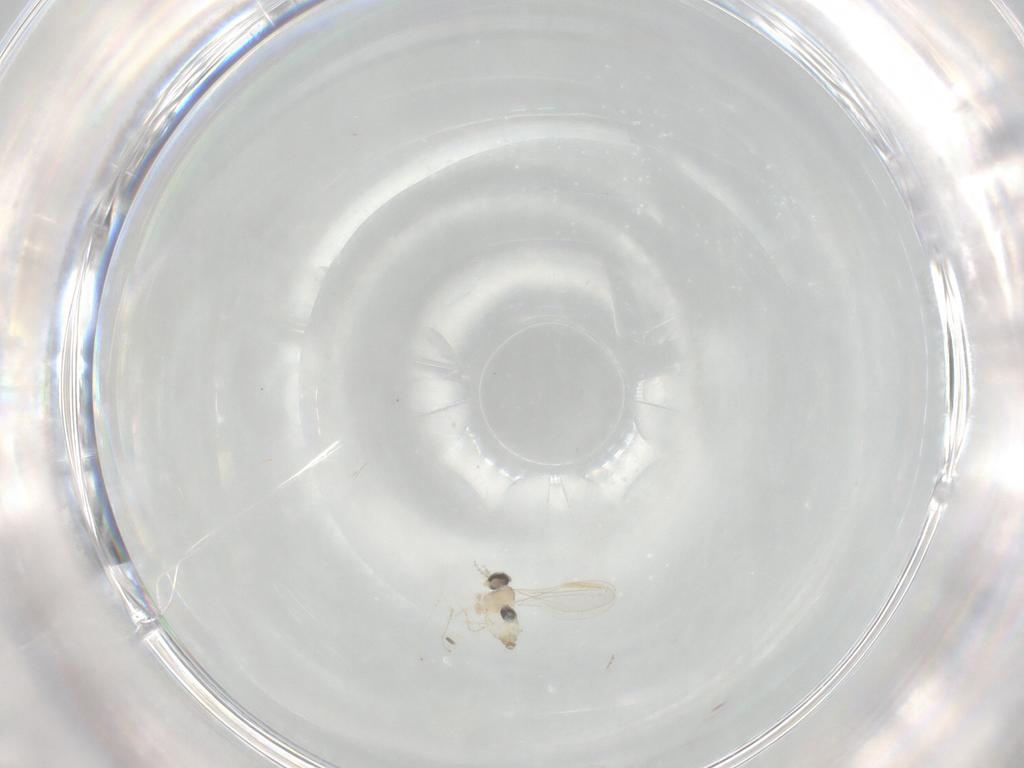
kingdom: Animalia
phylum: Arthropoda
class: Insecta
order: Diptera
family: Cecidomyiidae
